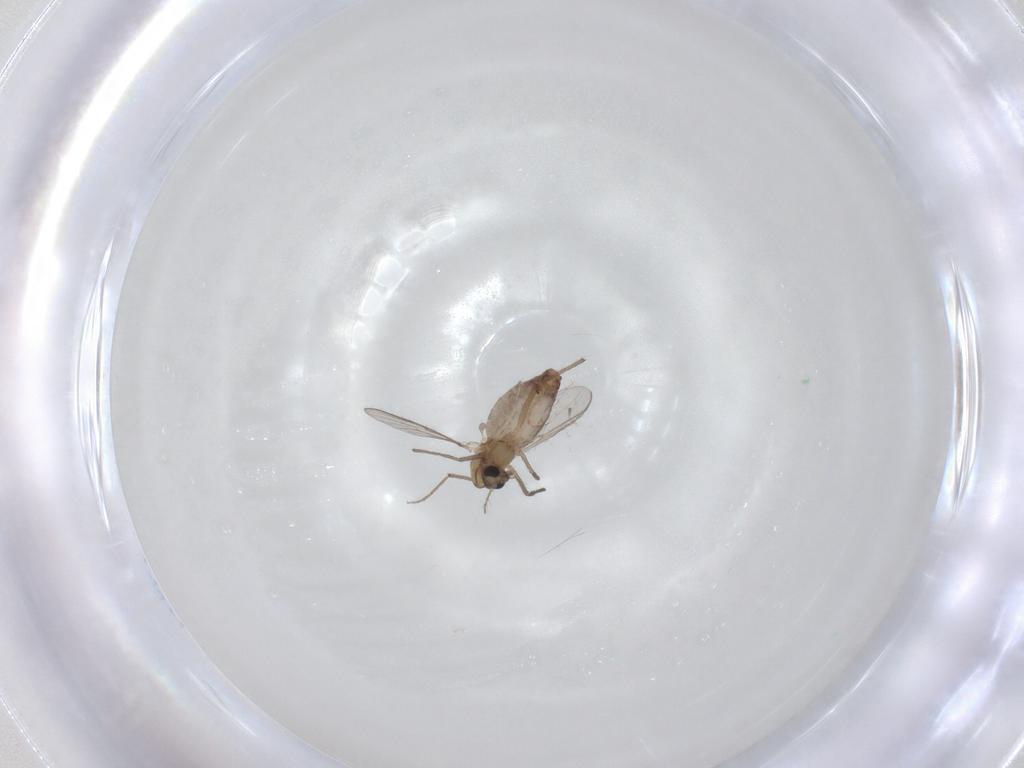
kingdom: Animalia
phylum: Arthropoda
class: Insecta
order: Diptera
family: Chironomidae
